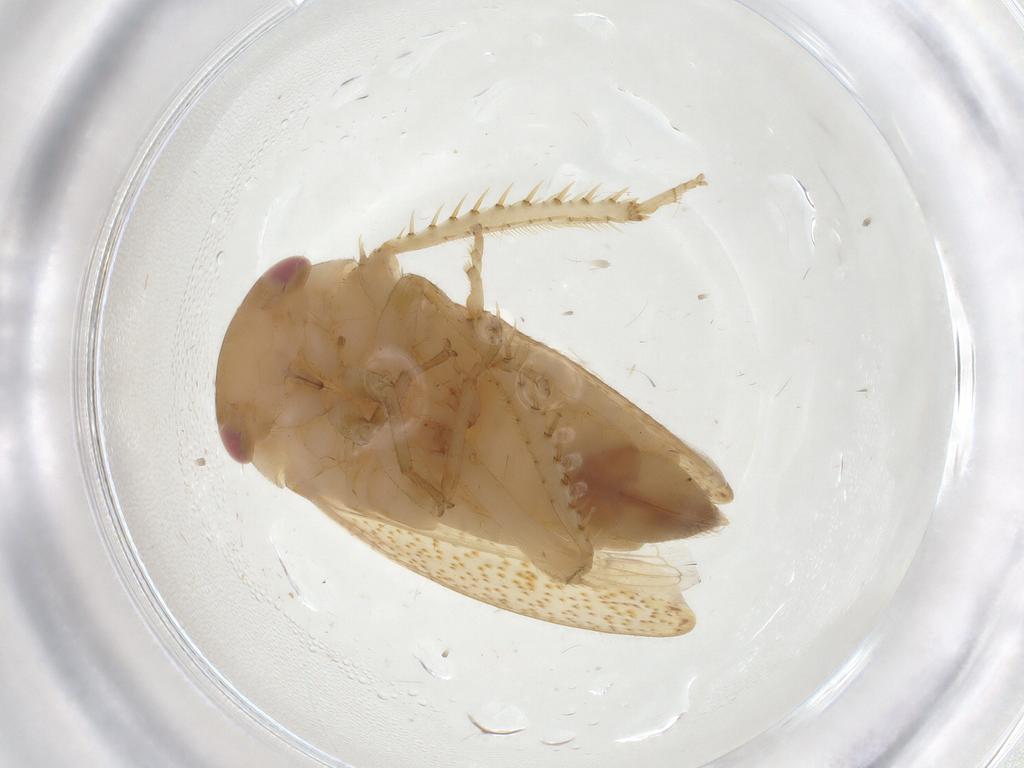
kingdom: Animalia
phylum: Arthropoda
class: Insecta
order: Hemiptera
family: Cicadellidae
